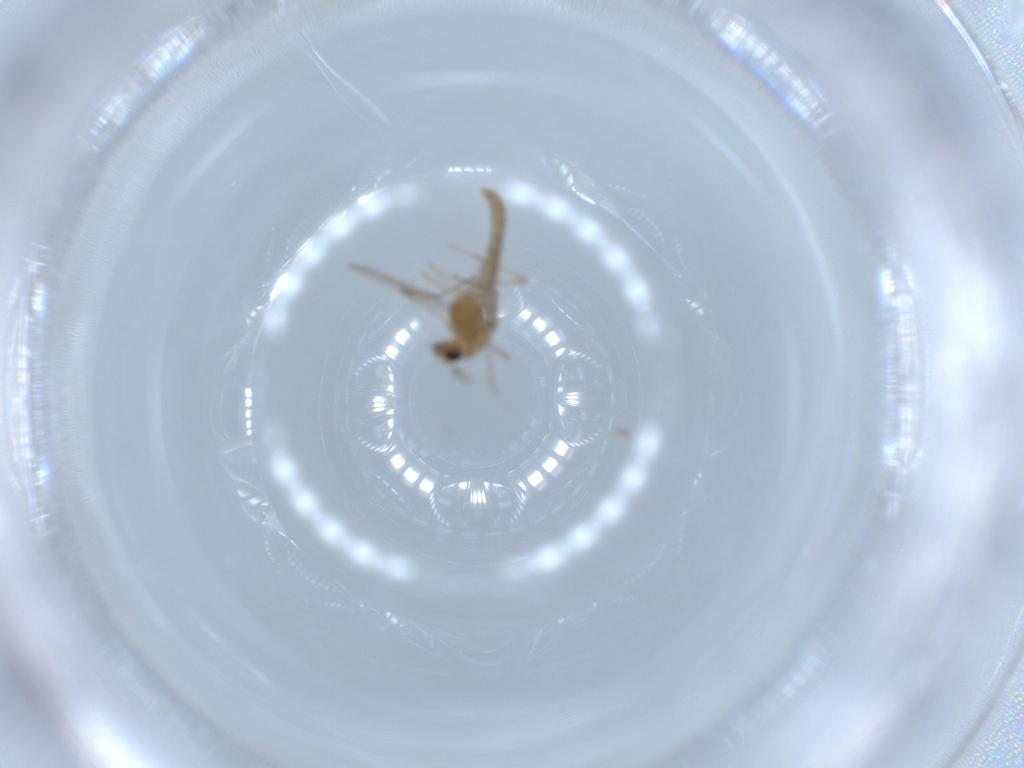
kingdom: Animalia
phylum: Arthropoda
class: Insecta
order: Diptera
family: Chironomidae
